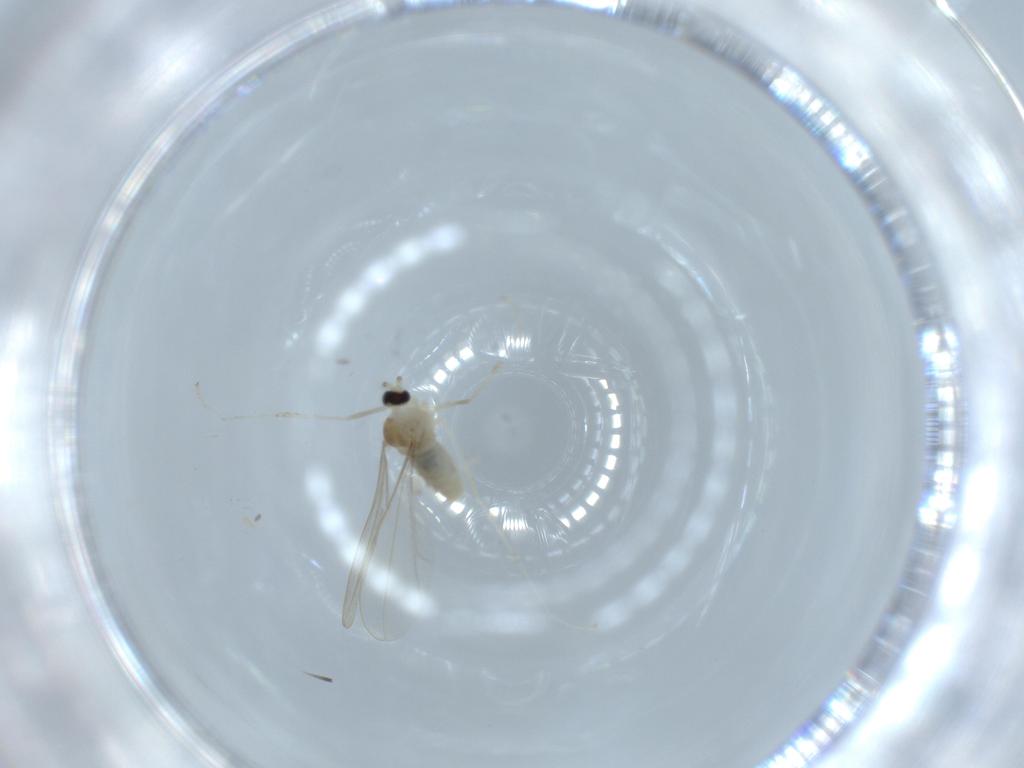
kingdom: Animalia
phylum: Arthropoda
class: Insecta
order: Diptera
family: Cecidomyiidae
